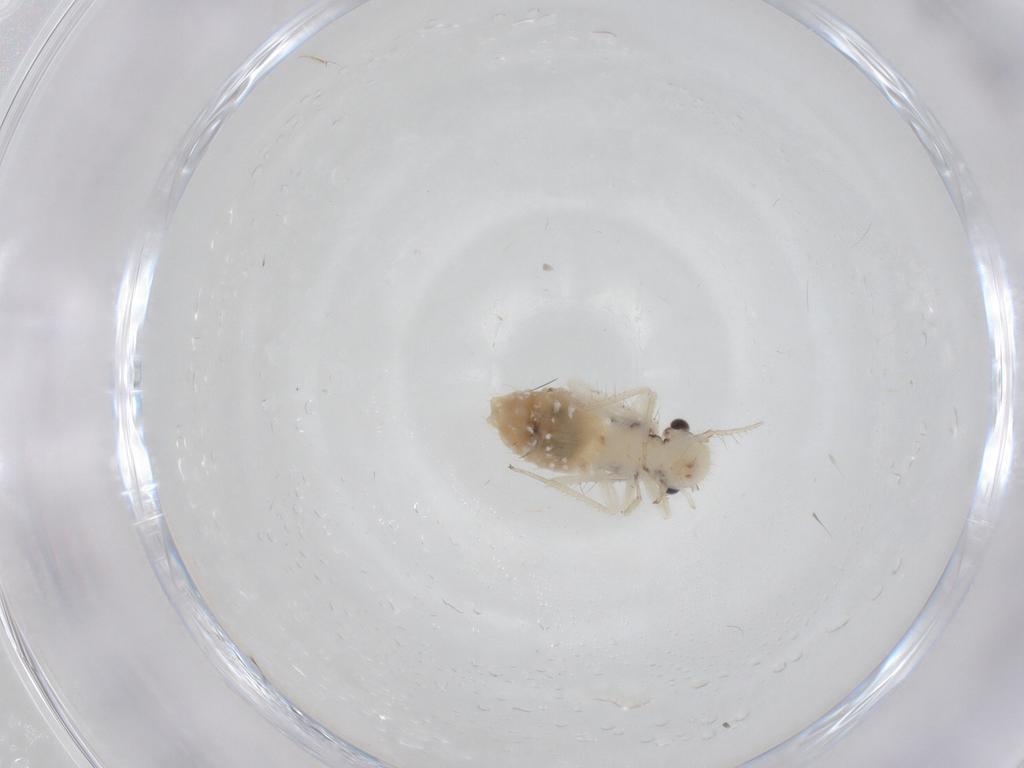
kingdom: Animalia
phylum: Arthropoda
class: Insecta
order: Psocodea
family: Pseudocaeciliidae
